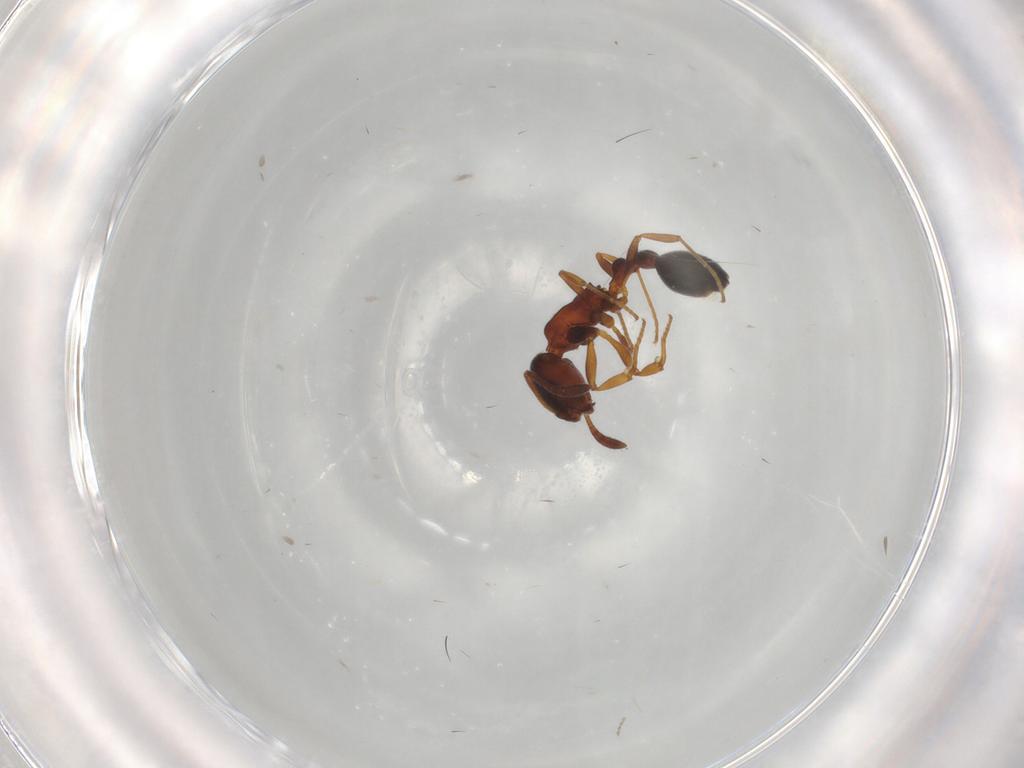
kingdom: Animalia
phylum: Arthropoda
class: Insecta
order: Hymenoptera
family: Formicidae
